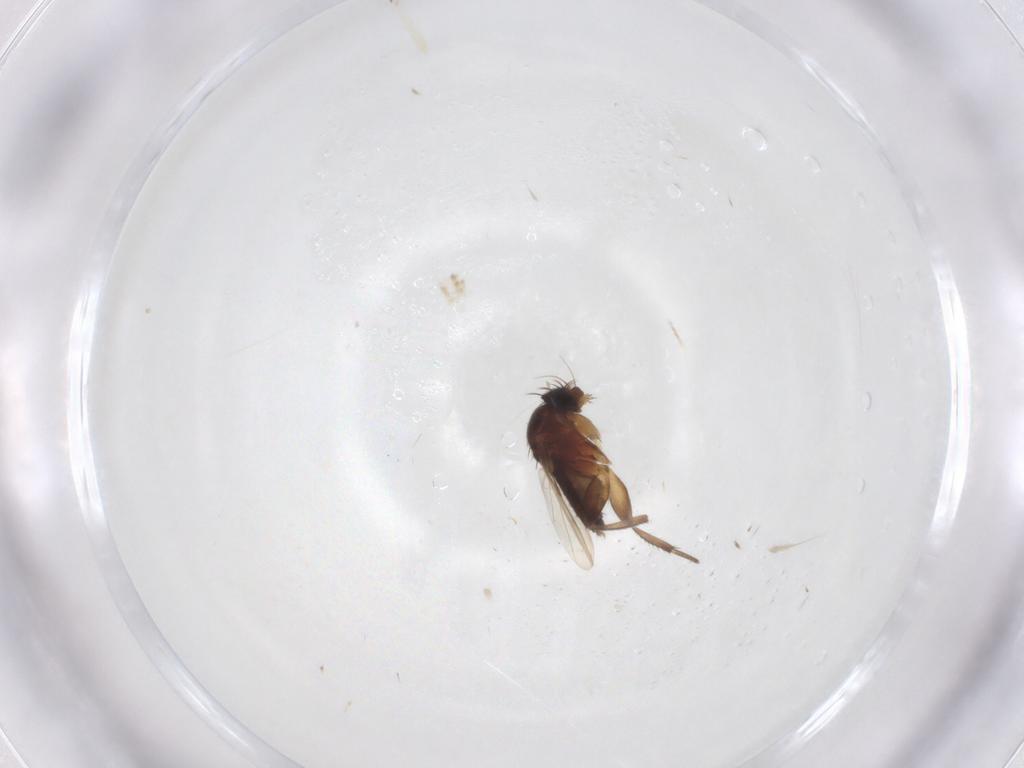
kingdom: Animalia
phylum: Arthropoda
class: Insecta
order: Diptera
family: Phoridae
